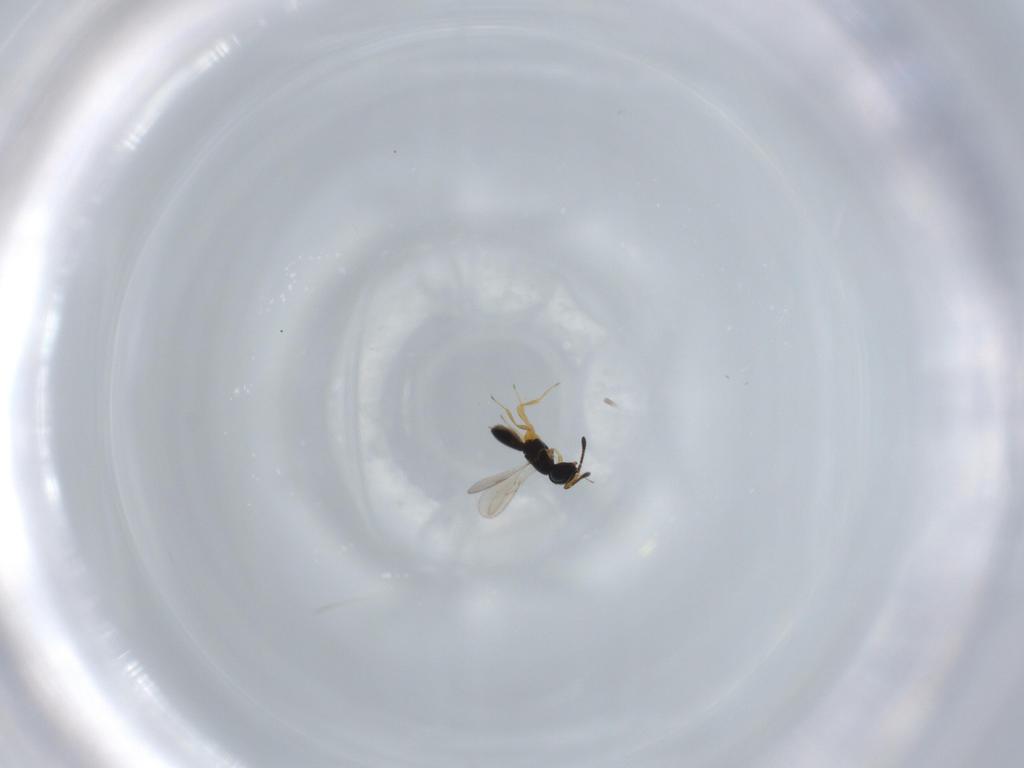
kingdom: Animalia
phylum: Arthropoda
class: Insecta
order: Hymenoptera
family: Scelionidae
